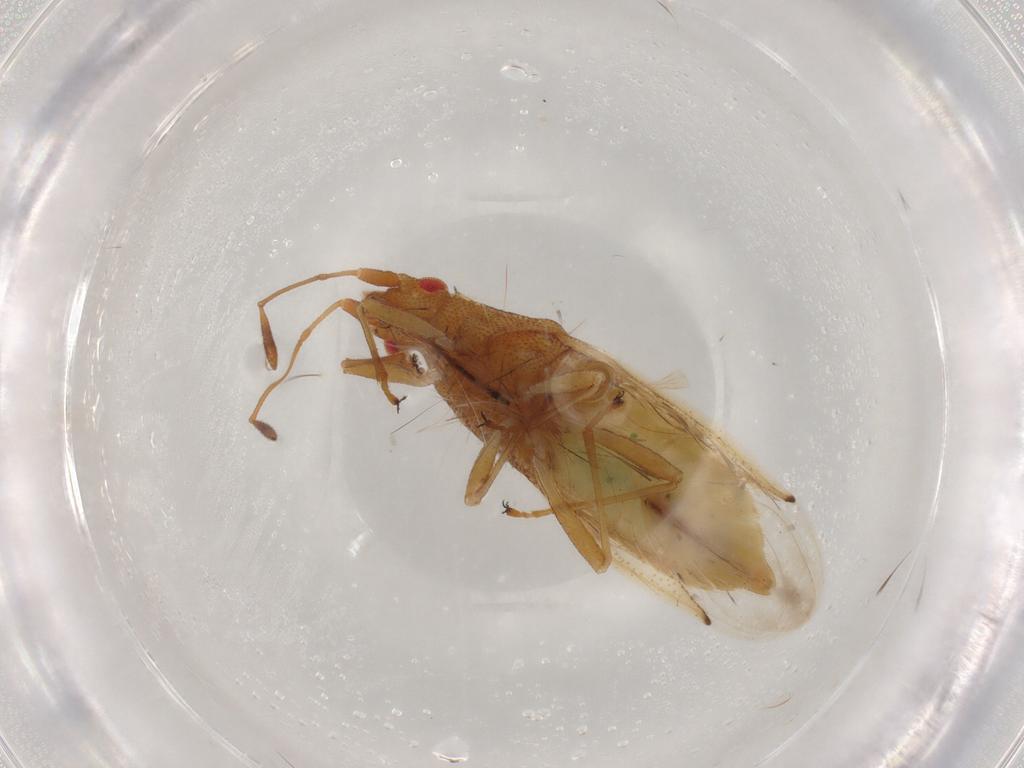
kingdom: Animalia
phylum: Arthropoda
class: Insecta
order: Hemiptera
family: Cymidae
